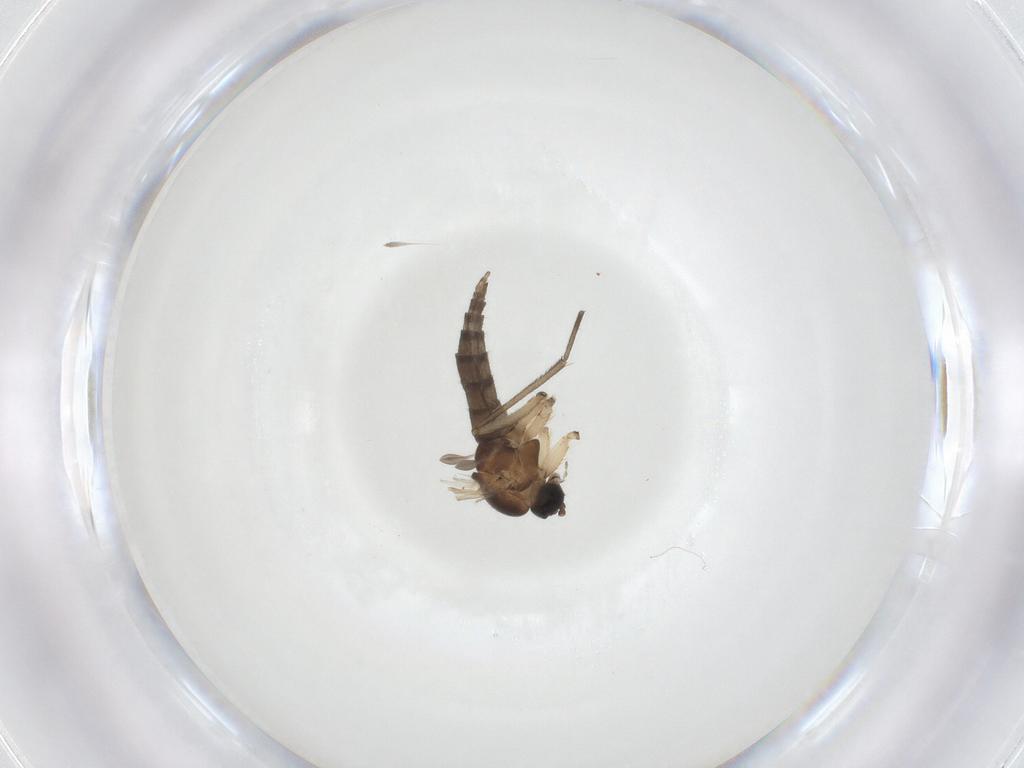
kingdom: Animalia
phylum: Arthropoda
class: Insecta
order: Diptera
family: Sciaridae
